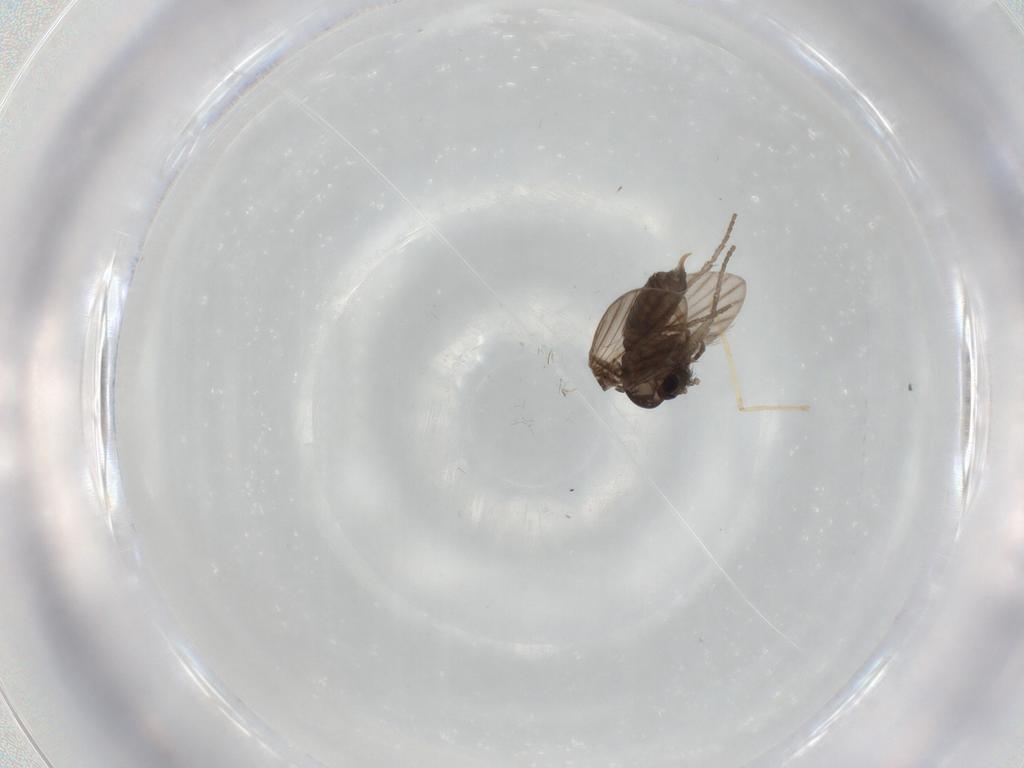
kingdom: Animalia
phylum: Arthropoda
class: Insecta
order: Diptera
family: Psychodidae
